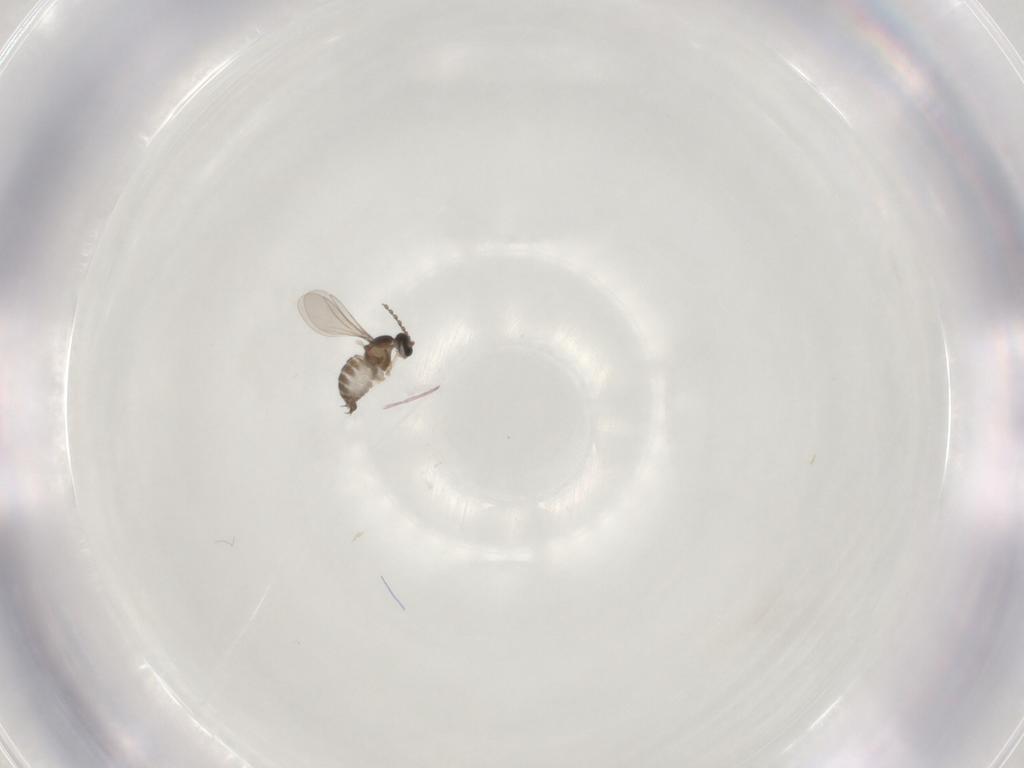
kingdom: Animalia
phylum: Arthropoda
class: Insecta
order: Diptera
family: Cecidomyiidae
